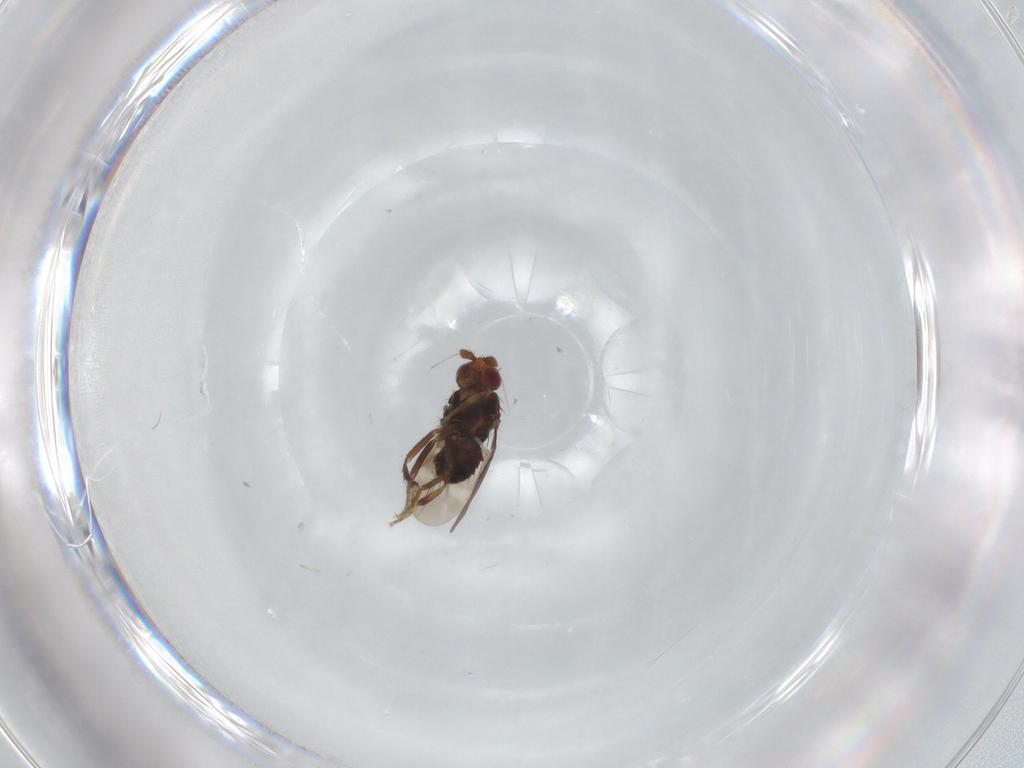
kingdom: Animalia
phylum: Arthropoda
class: Insecta
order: Diptera
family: Sphaeroceridae
